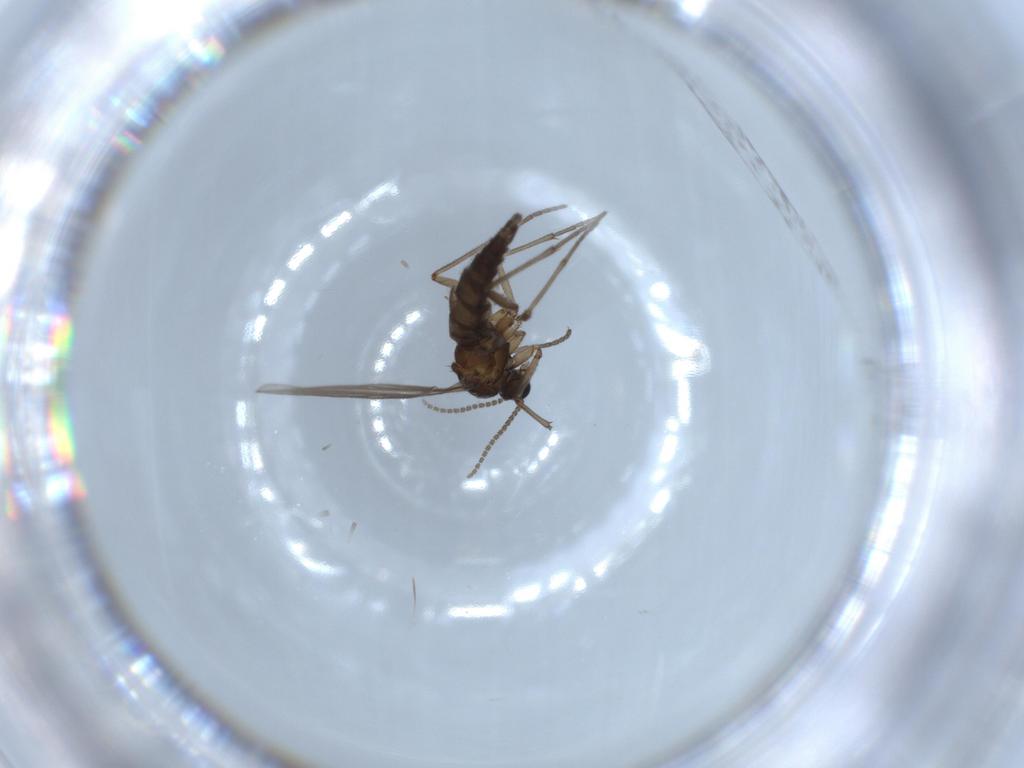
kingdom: Animalia
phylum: Arthropoda
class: Insecta
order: Diptera
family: Sciaridae
